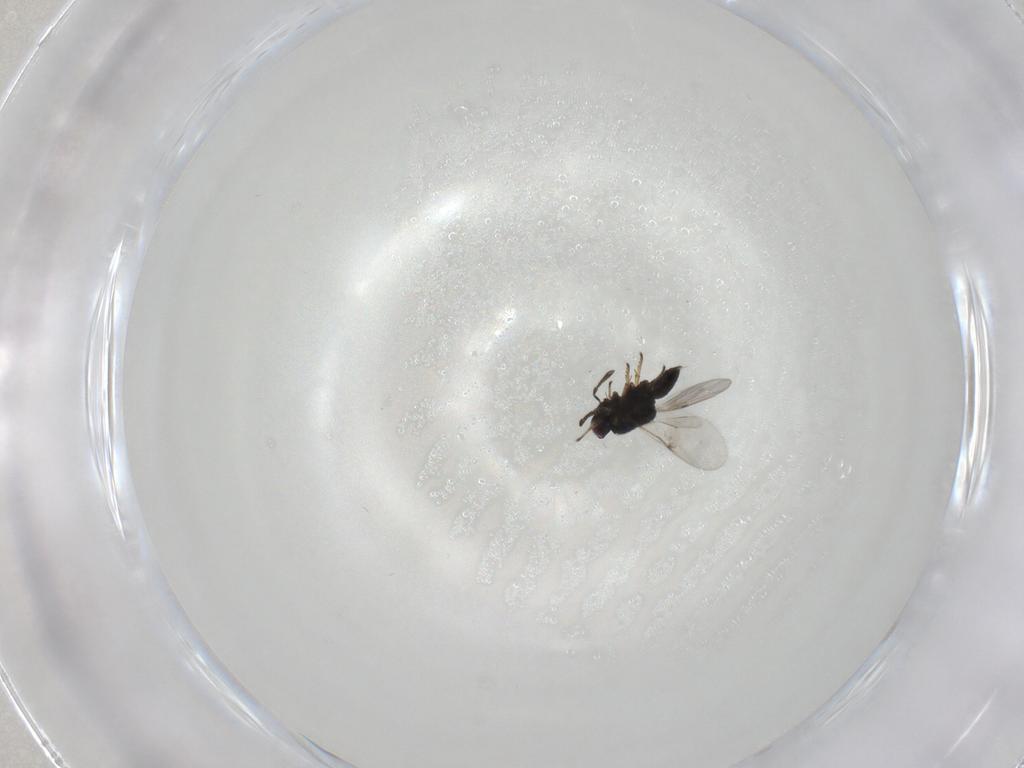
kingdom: Animalia
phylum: Arthropoda
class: Insecta
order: Hymenoptera
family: Encyrtidae
